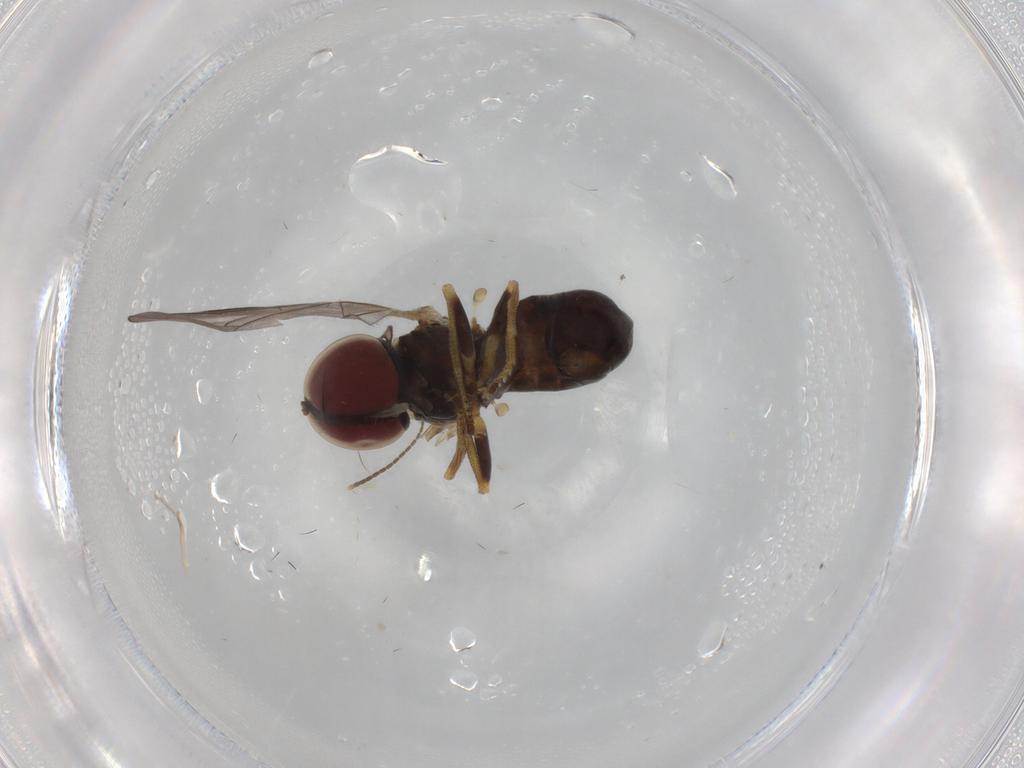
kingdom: Animalia
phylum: Arthropoda
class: Insecta
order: Diptera
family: Pipunculidae
